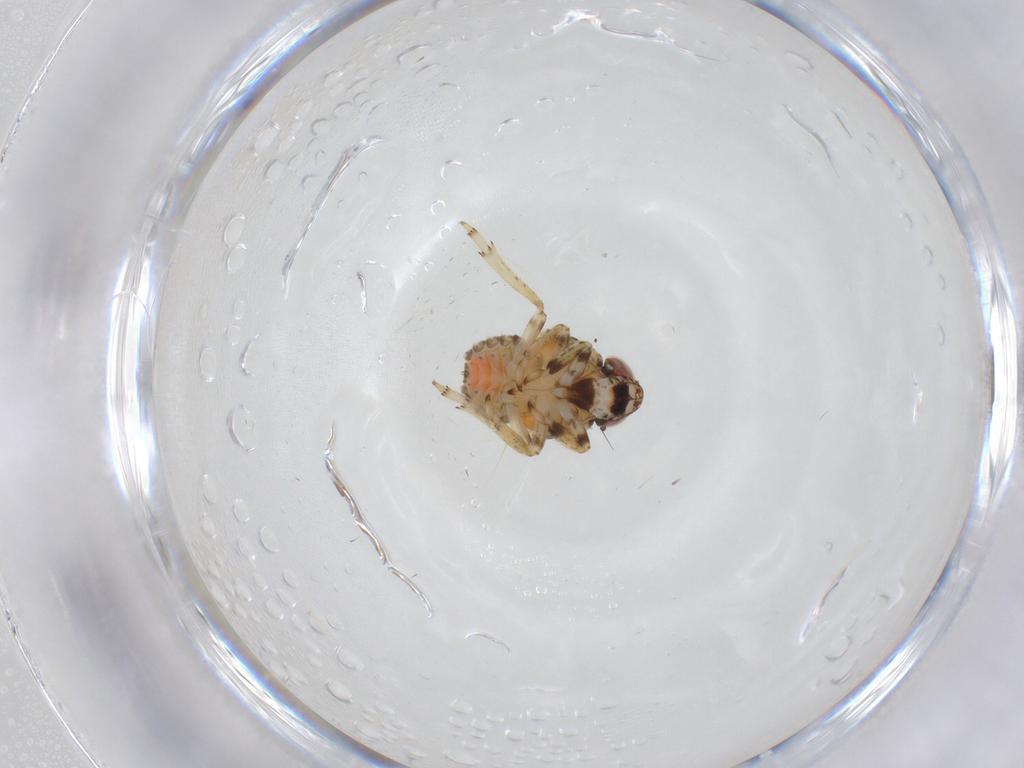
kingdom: Animalia
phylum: Arthropoda
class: Insecta
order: Hemiptera
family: Issidae
